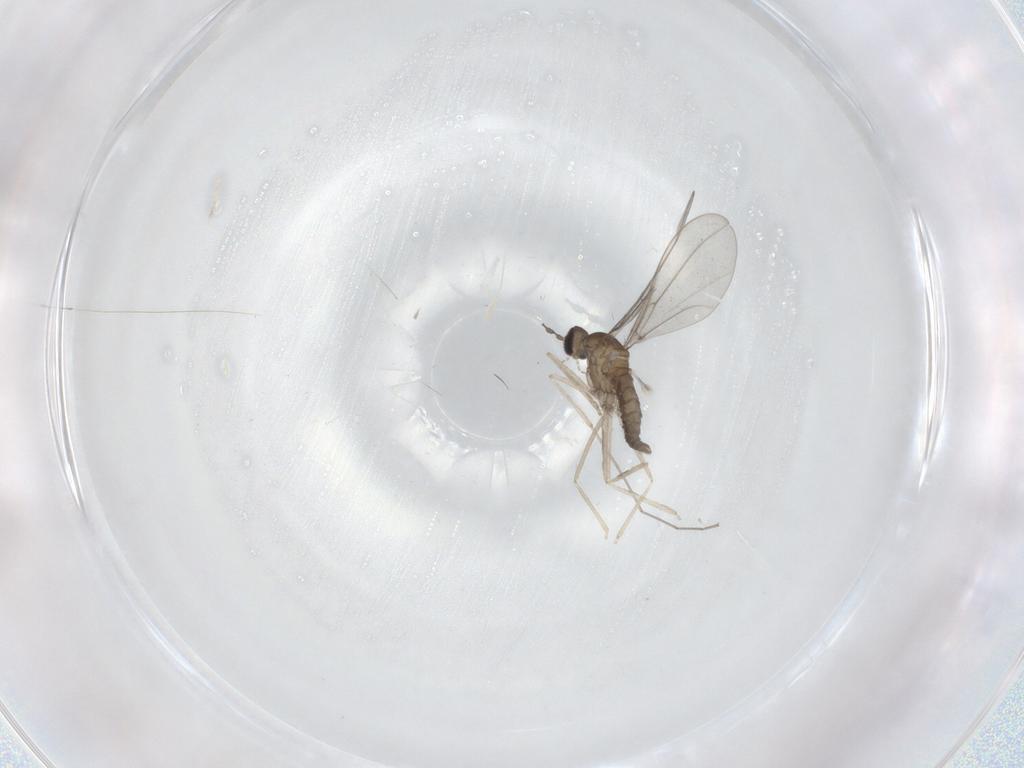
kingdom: Animalia
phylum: Arthropoda
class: Insecta
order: Diptera
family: Cecidomyiidae
